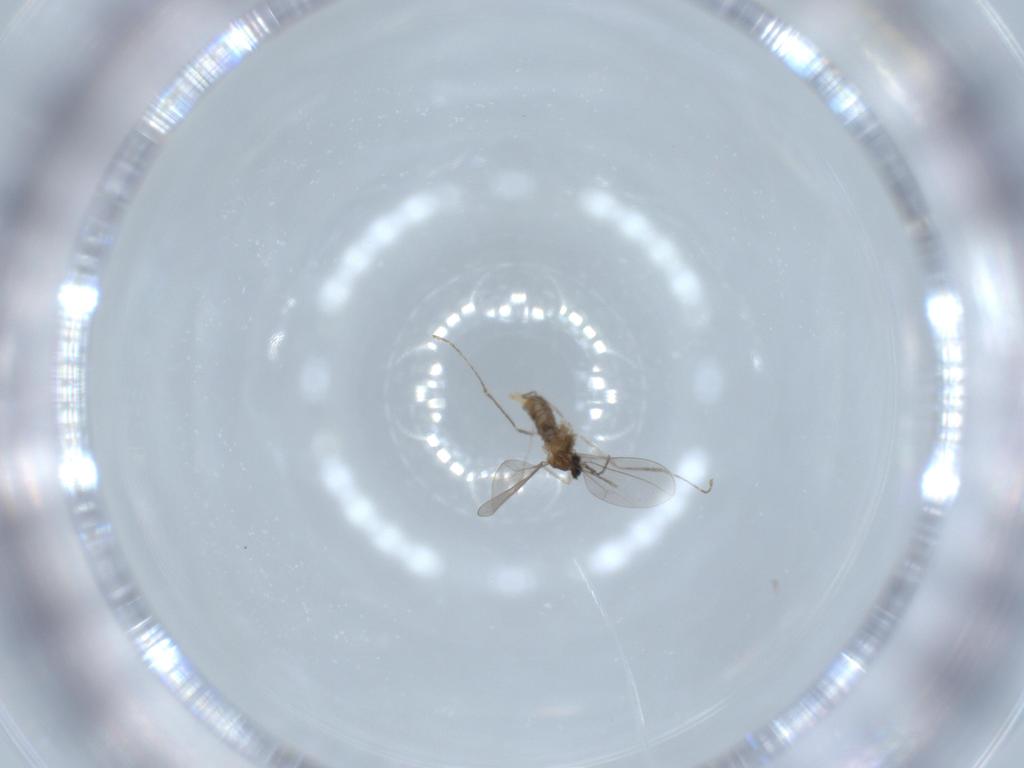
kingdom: Animalia
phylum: Arthropoda
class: Insecta
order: Diptera
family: Cecidomyiidae
